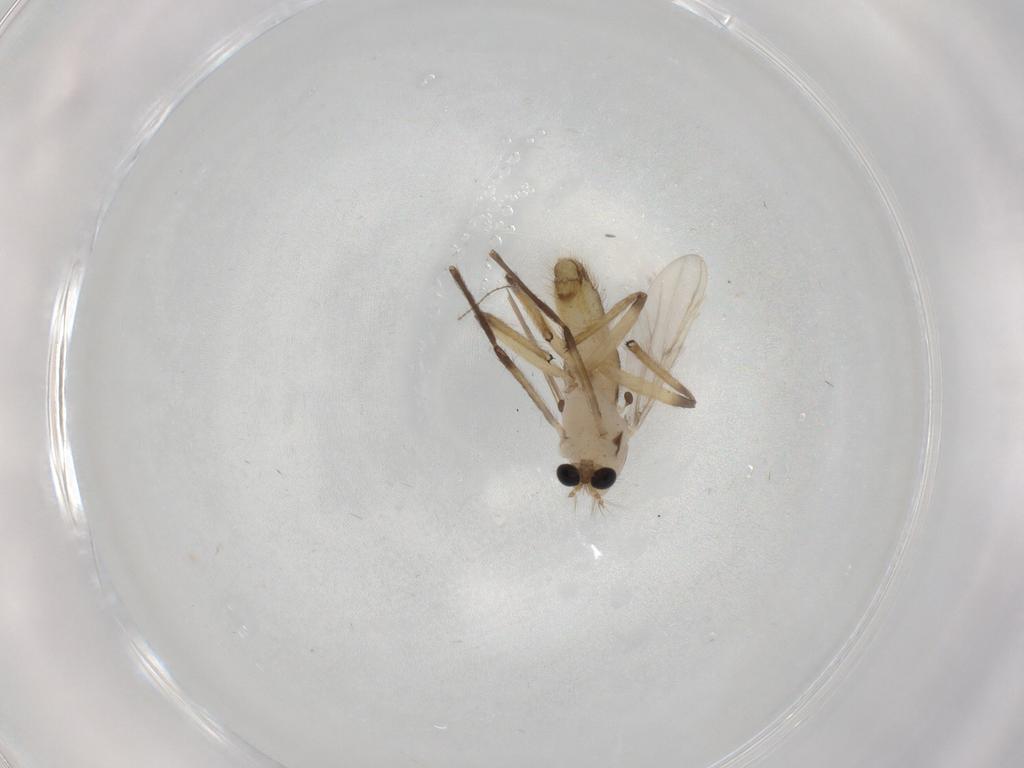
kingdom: Animalia
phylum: Arthropoda
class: Insecta
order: Diptera
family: Chironomidae
